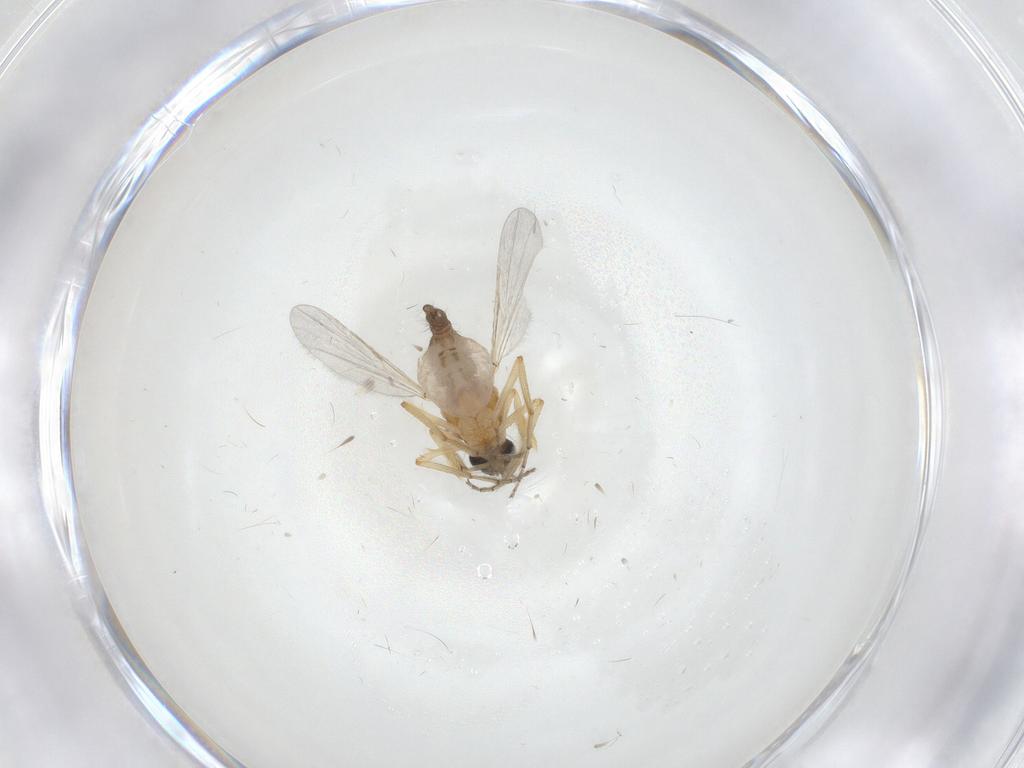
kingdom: Animalia
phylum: Arthropoda
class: Insecta
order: Diptera
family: Ceratopogonidae
